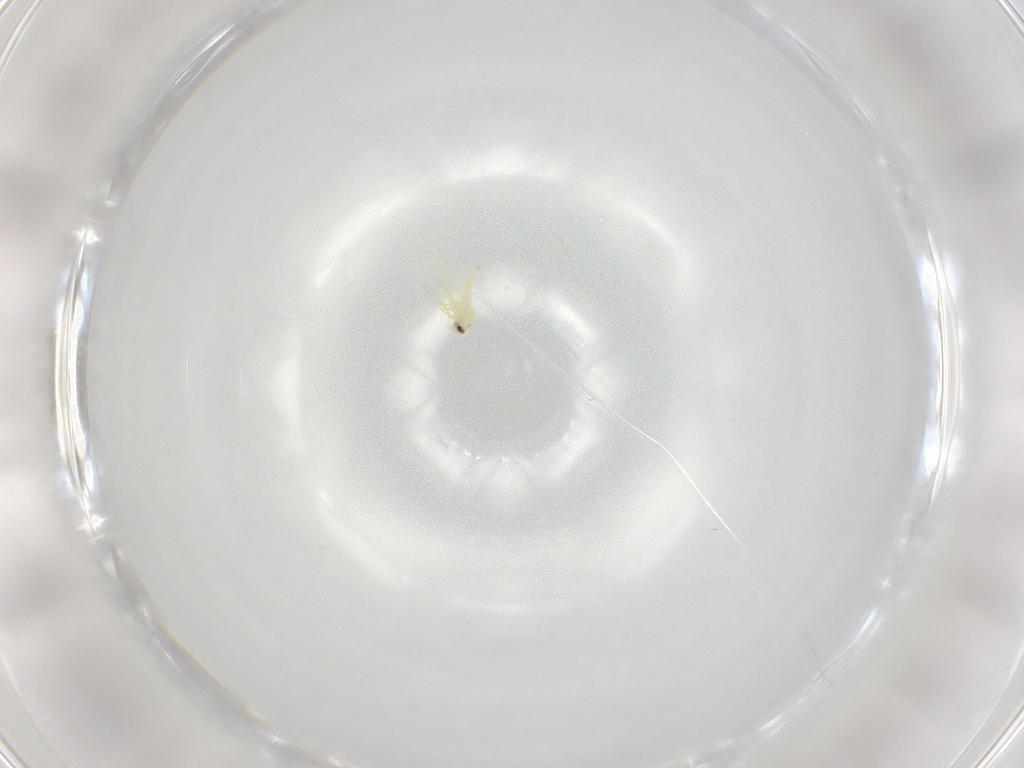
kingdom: Animalia
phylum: Arthropoda
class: Insecta
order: Hemiptera
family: Aleyrodidae
